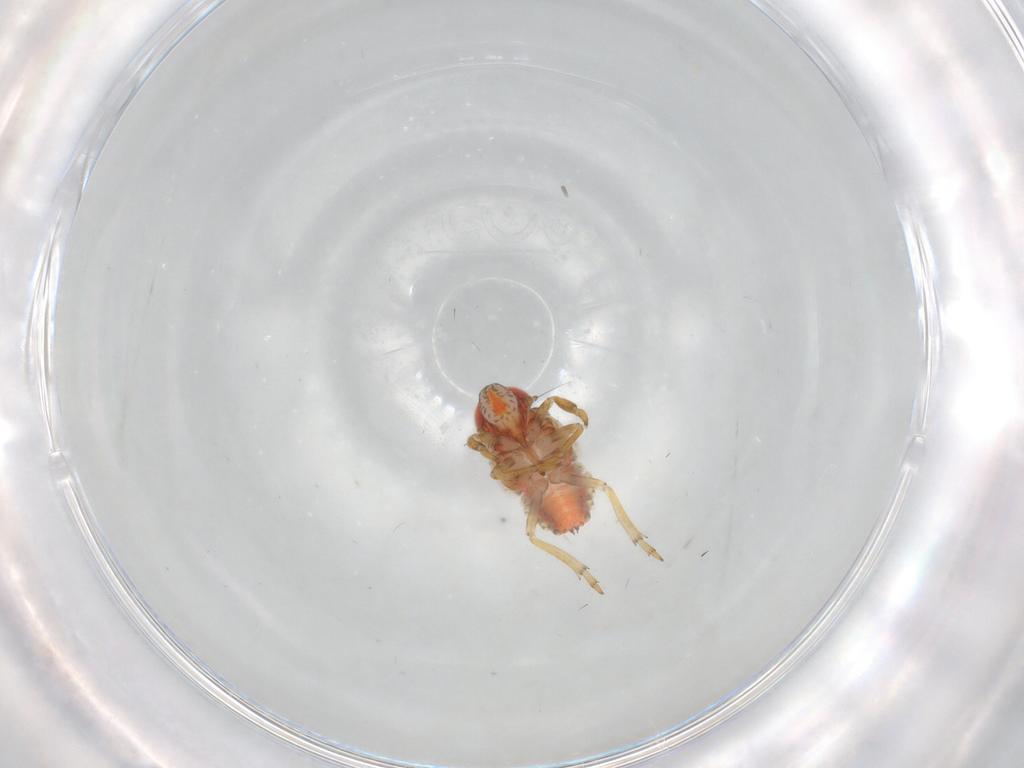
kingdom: Animalia
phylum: Arthropoda
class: Insecta
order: Hemiptera
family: Issidae
